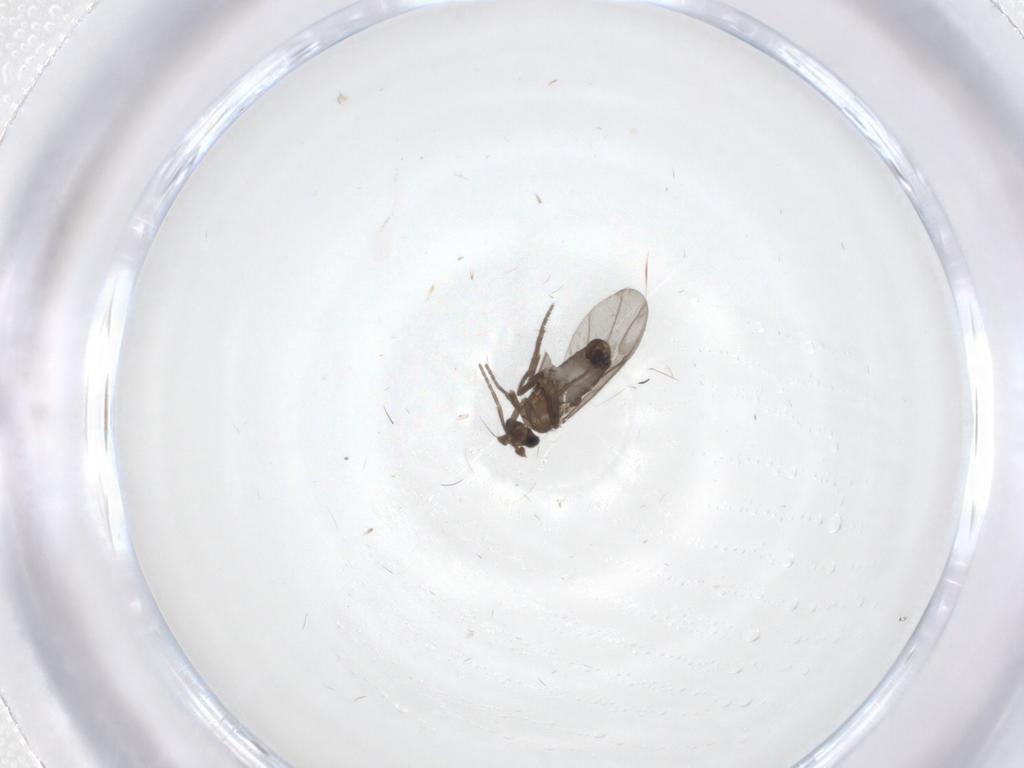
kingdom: Animalia
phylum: Arthropoda
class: Insecta
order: Diptera
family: Phoridae
